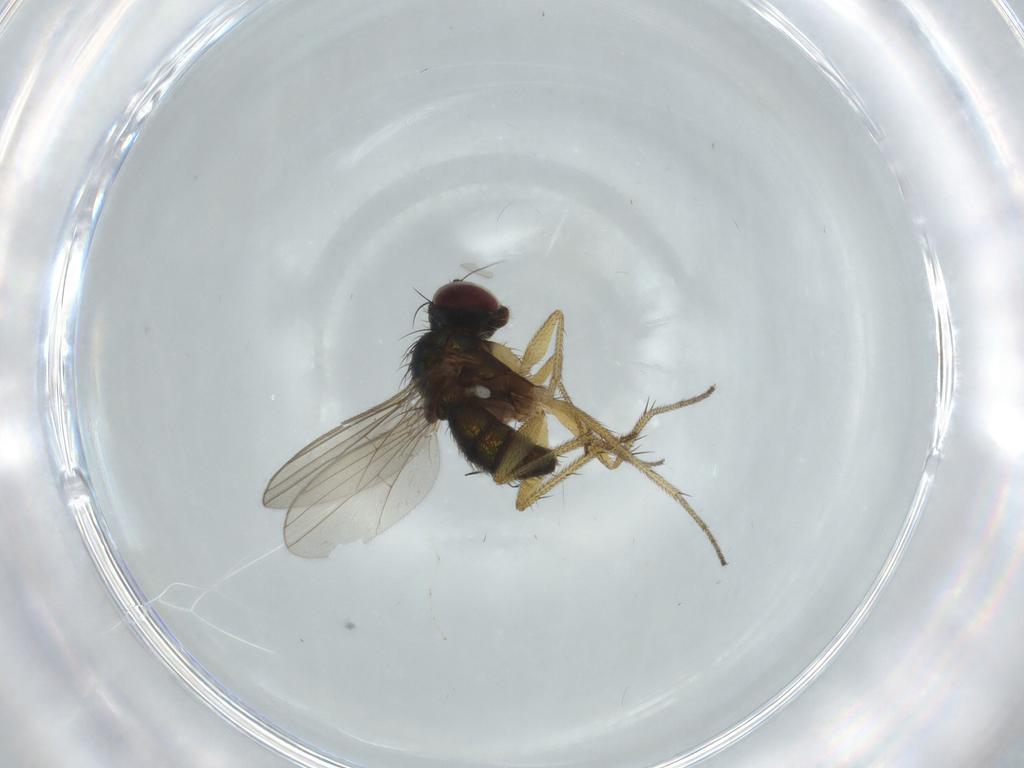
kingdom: Animalia
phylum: Arthropoda
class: Insecta
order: Diptera
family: Dolichopodidae
